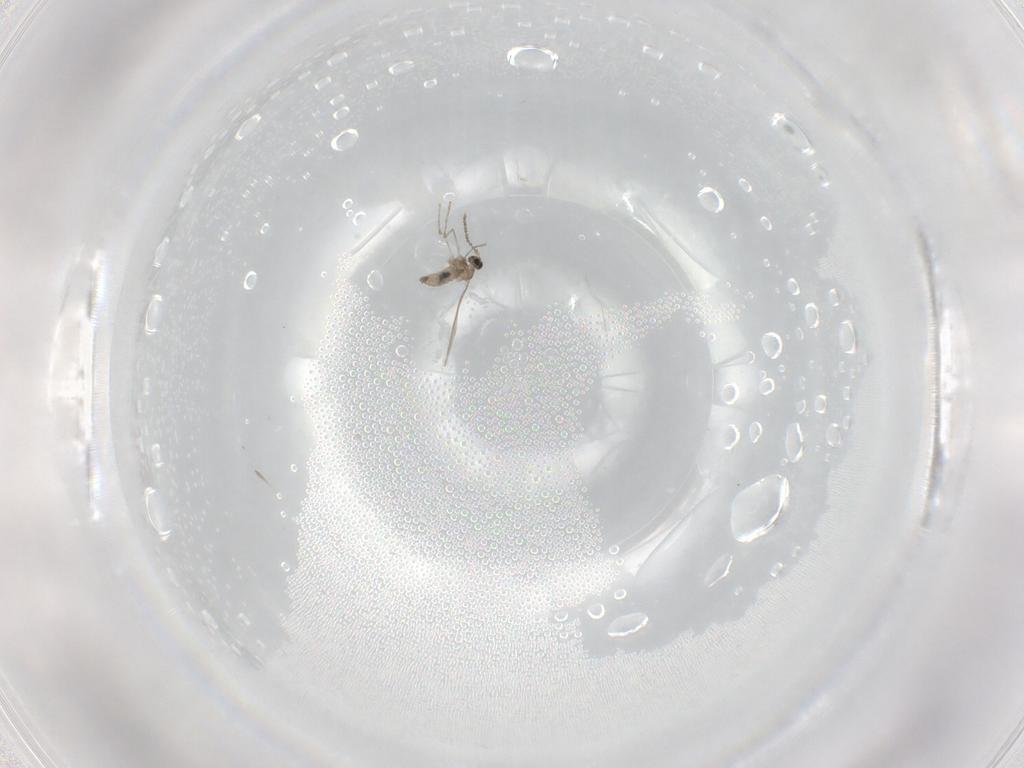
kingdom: Animalia
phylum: Arthropoda
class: Insecta
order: Diptera
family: Cecidomyiidae
